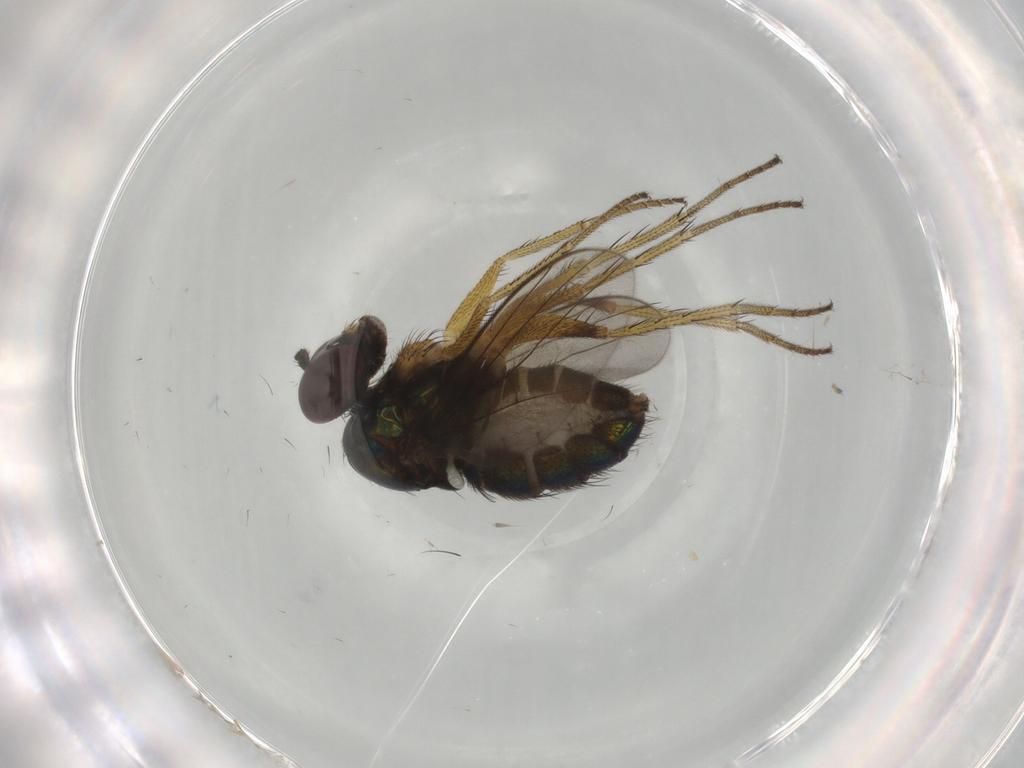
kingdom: Animalia
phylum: Arthropoda
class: Insecta
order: Diptera
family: Dolichopodidae
